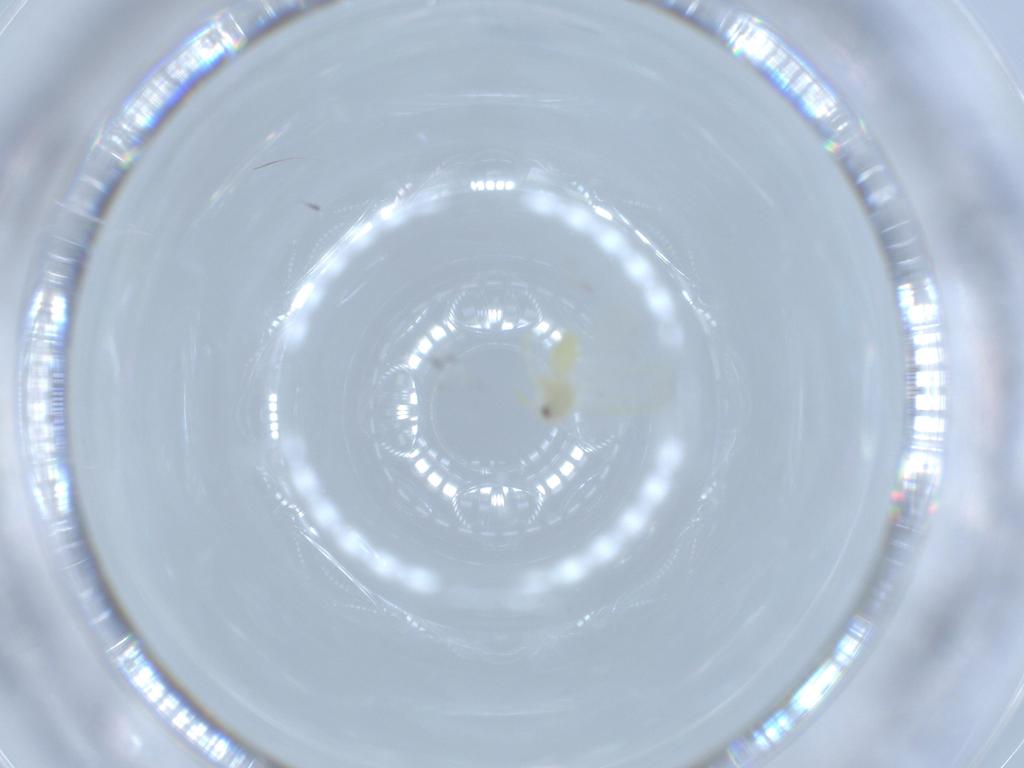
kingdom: Animalia
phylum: Arthropoda
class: Insecta
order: Hemiptera
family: Aleyrodidae
